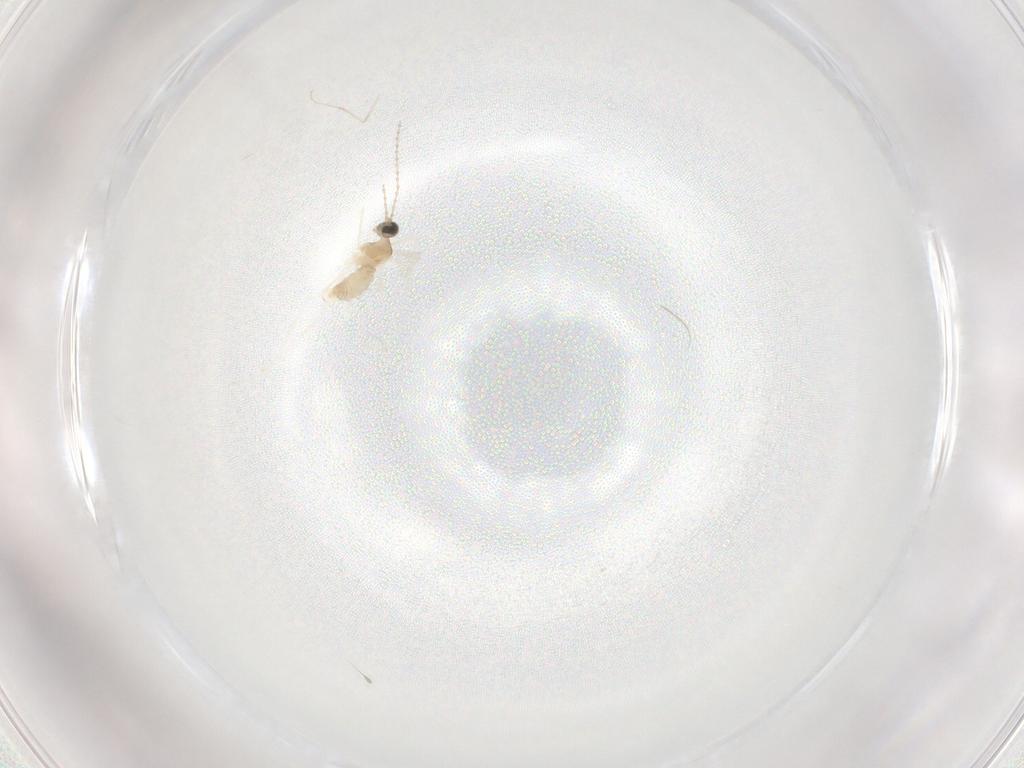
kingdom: Animalia
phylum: Arthropoda
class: Insecta
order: Diptera
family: Cecidomyiidae
